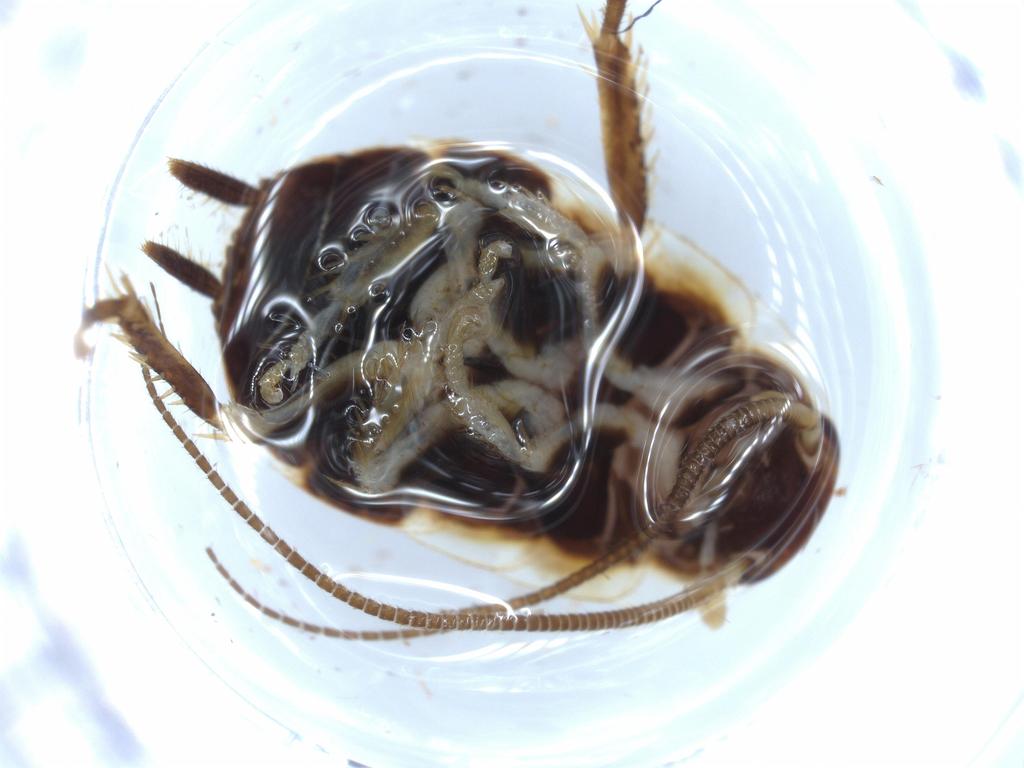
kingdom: Animalia
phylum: Arthropoda
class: Insecta
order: Blattodea
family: Ectobiidae
